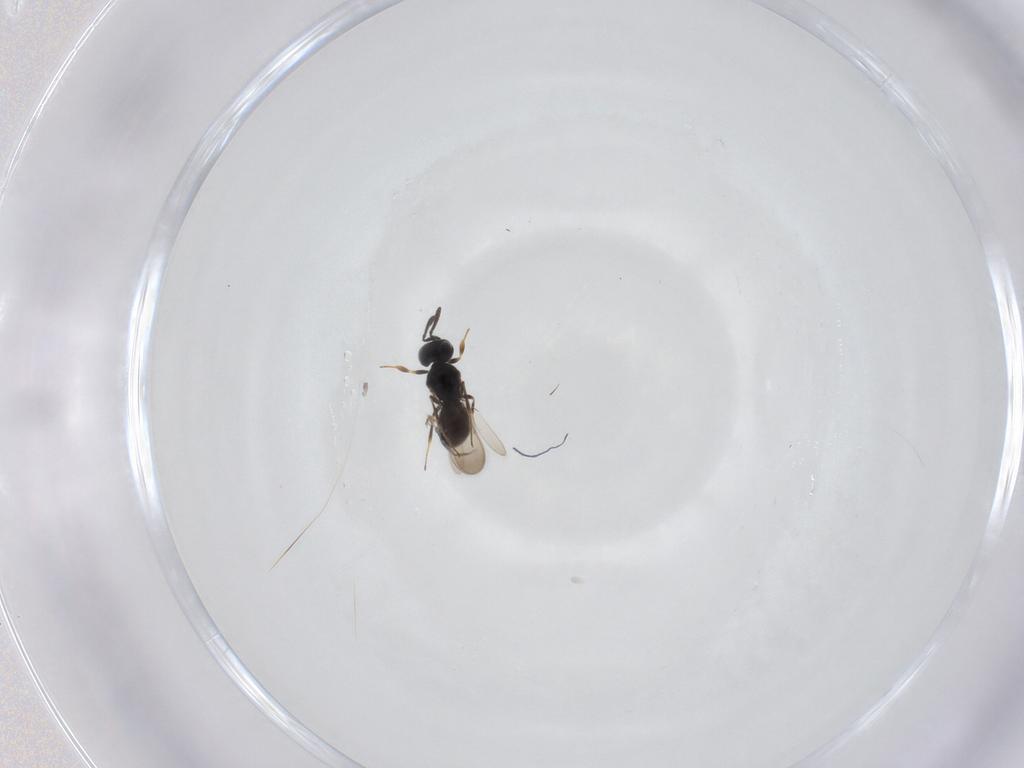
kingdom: Animalia
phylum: Arthropoda
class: Insecta
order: Hymenoptera
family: Scelionidae
